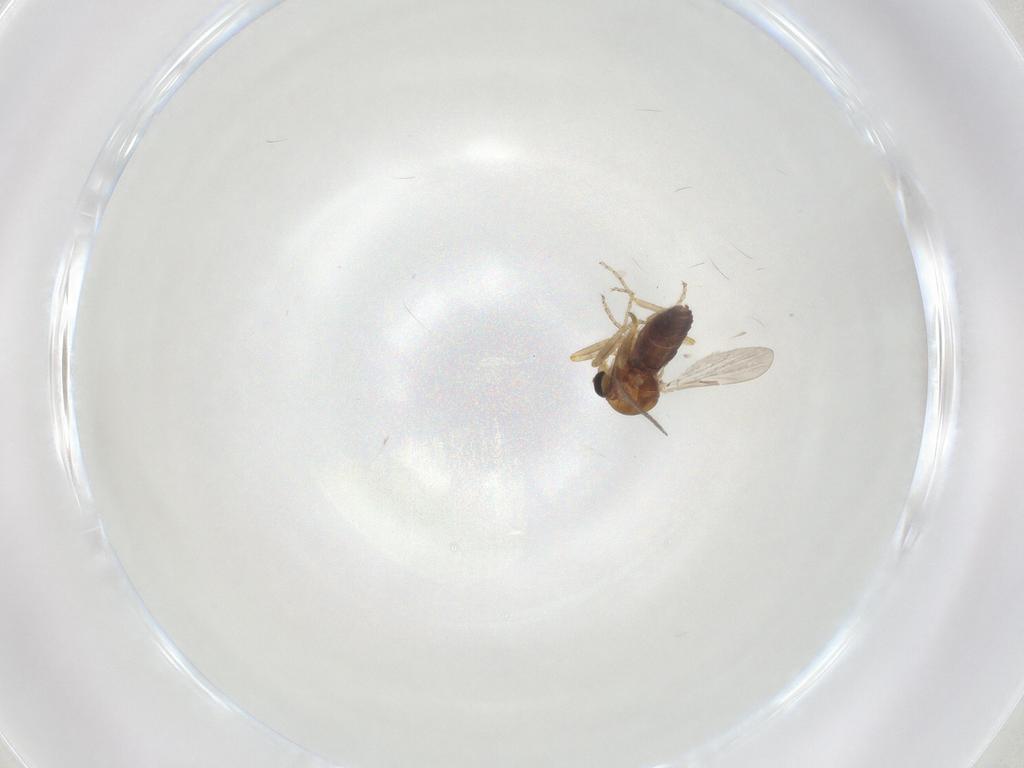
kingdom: Animalia
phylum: Arthropoda
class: Insecta
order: Diptera
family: Ceratopogonidae
